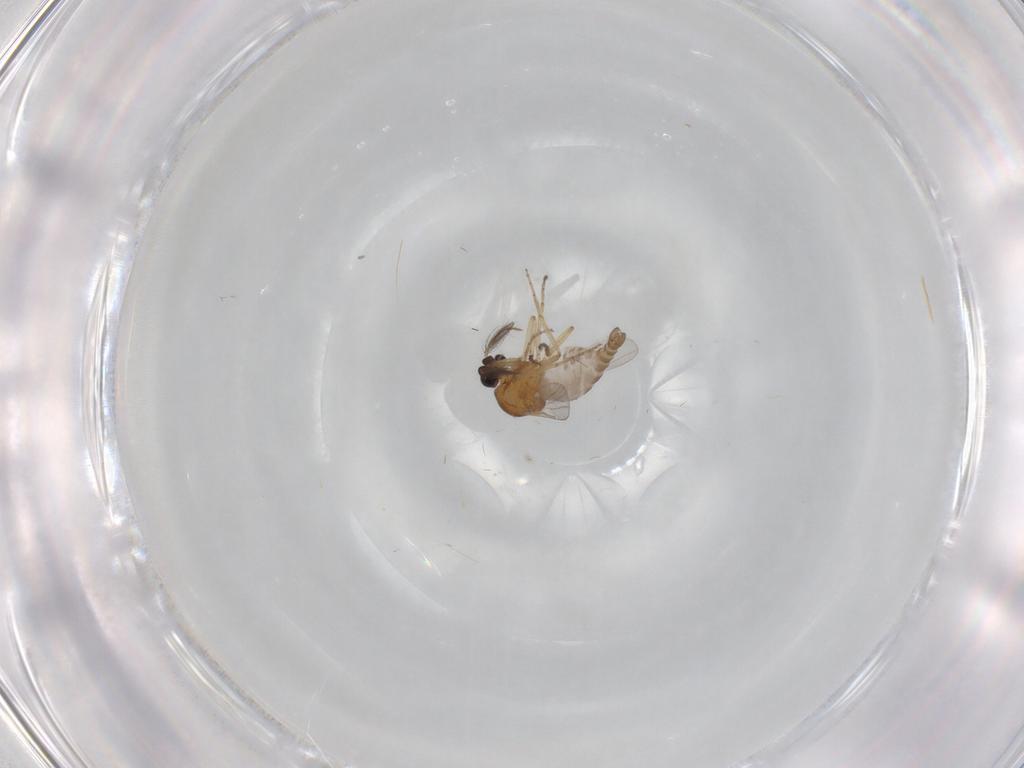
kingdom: Animalia
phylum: Arthropoda
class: Insecta
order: Diptera
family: Ceratopogonidae
